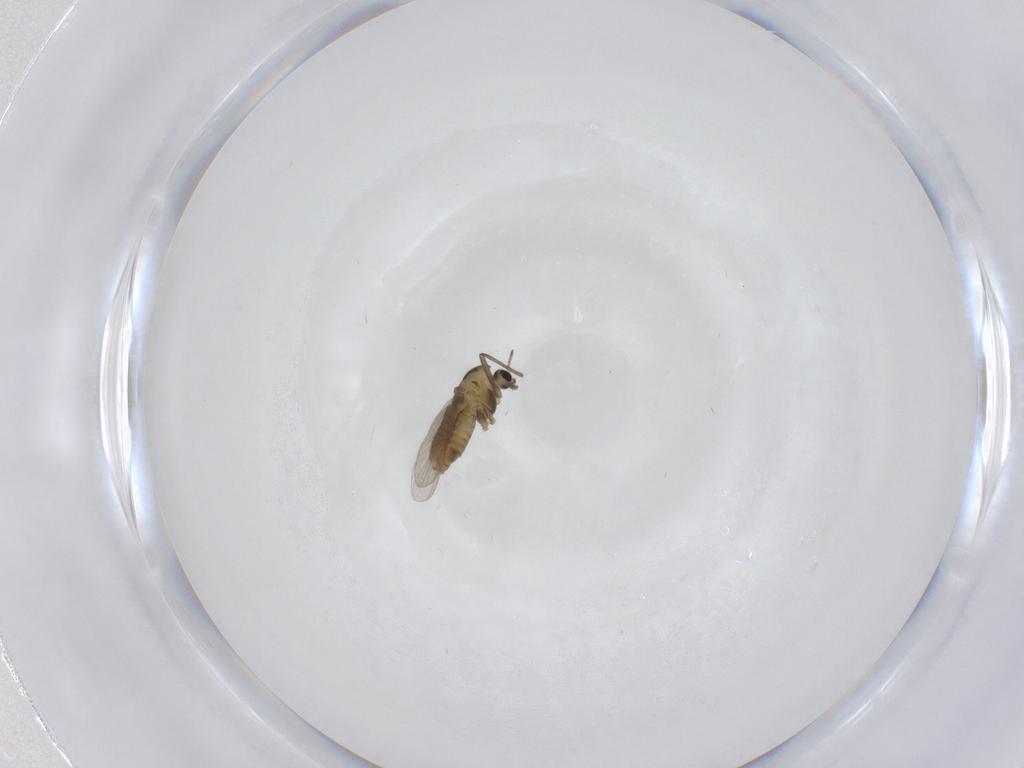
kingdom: Animalia
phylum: Arthropoda
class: Insecta
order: Diptera
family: Chironomidae
